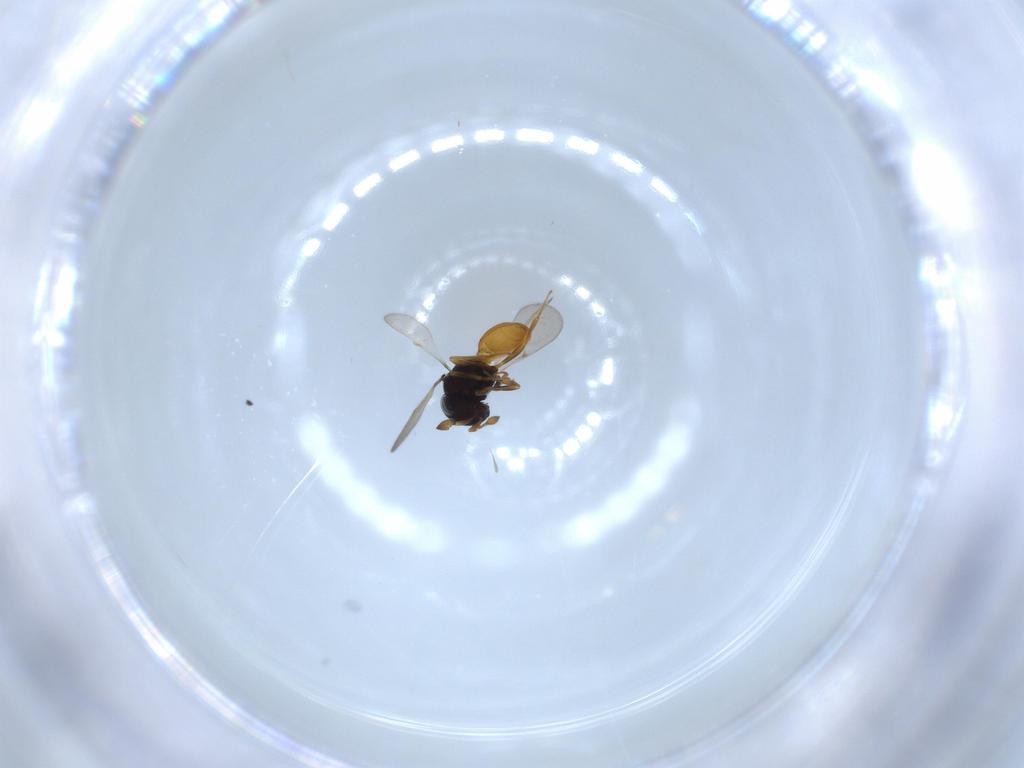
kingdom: Animalia
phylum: Arthropoda
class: Insecta
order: Hymenoptera
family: Scelionidae
